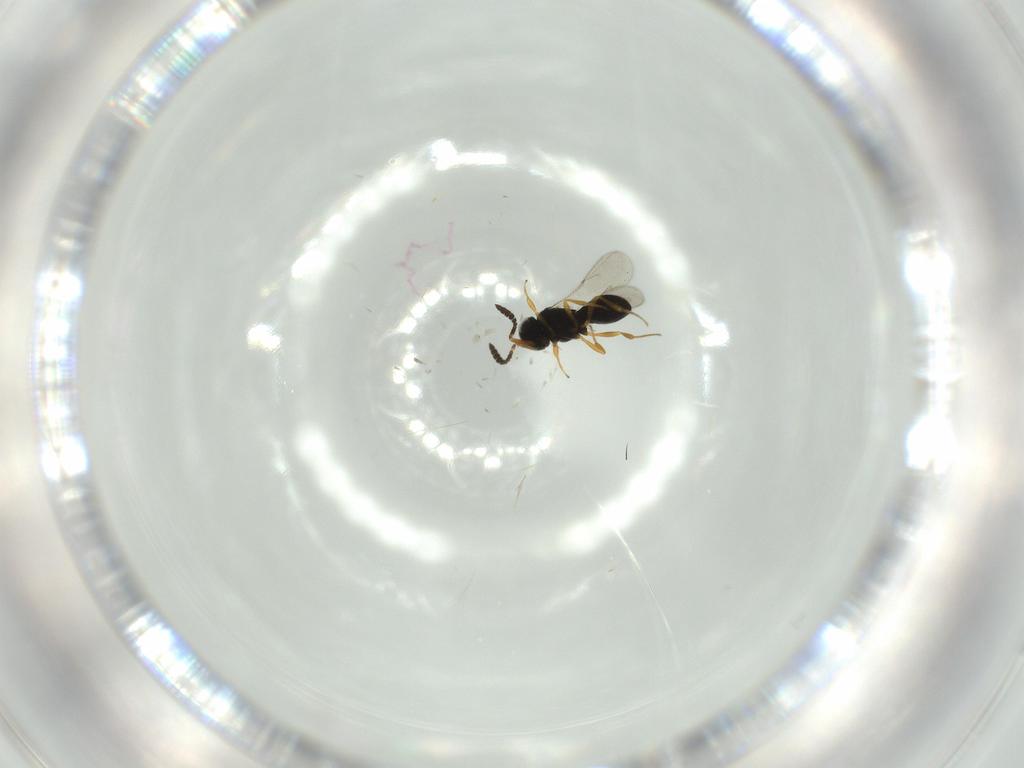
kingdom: Animalia
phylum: Arthropoda
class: Insecta
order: Hymenoptera
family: Scelionidae
